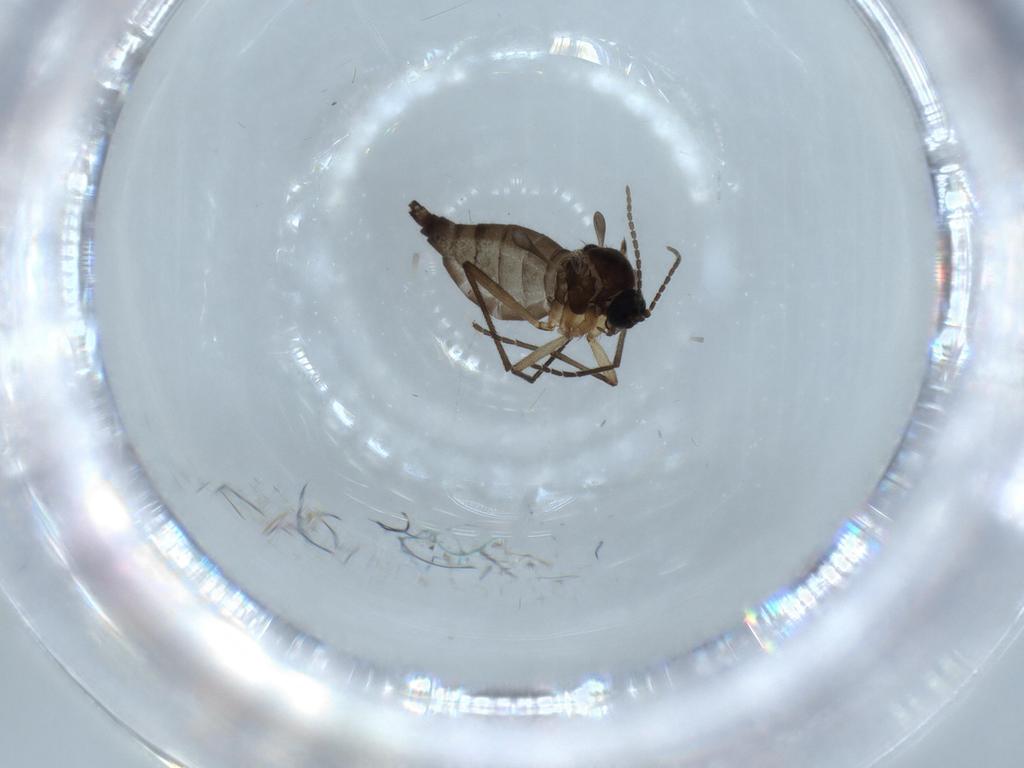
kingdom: Animalia
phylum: Arthropoda
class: Insecta
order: Diptera
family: Sciaridae
